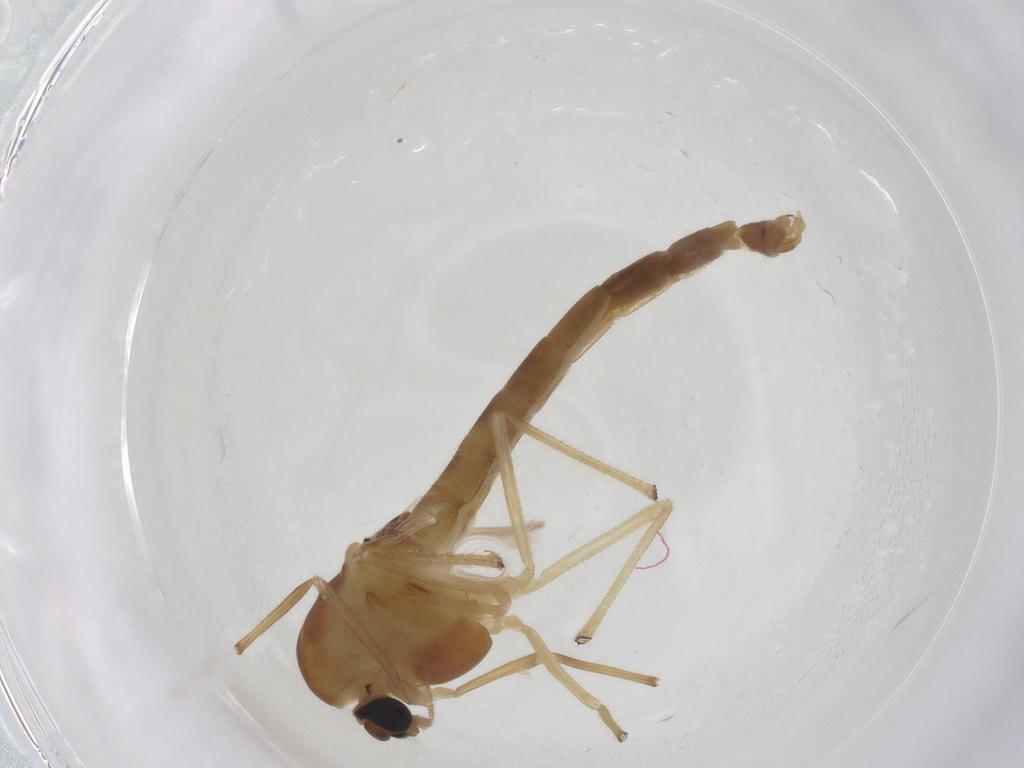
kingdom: Animalia
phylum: Arthropoda
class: Insecta
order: Diptera
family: Chironomidae
